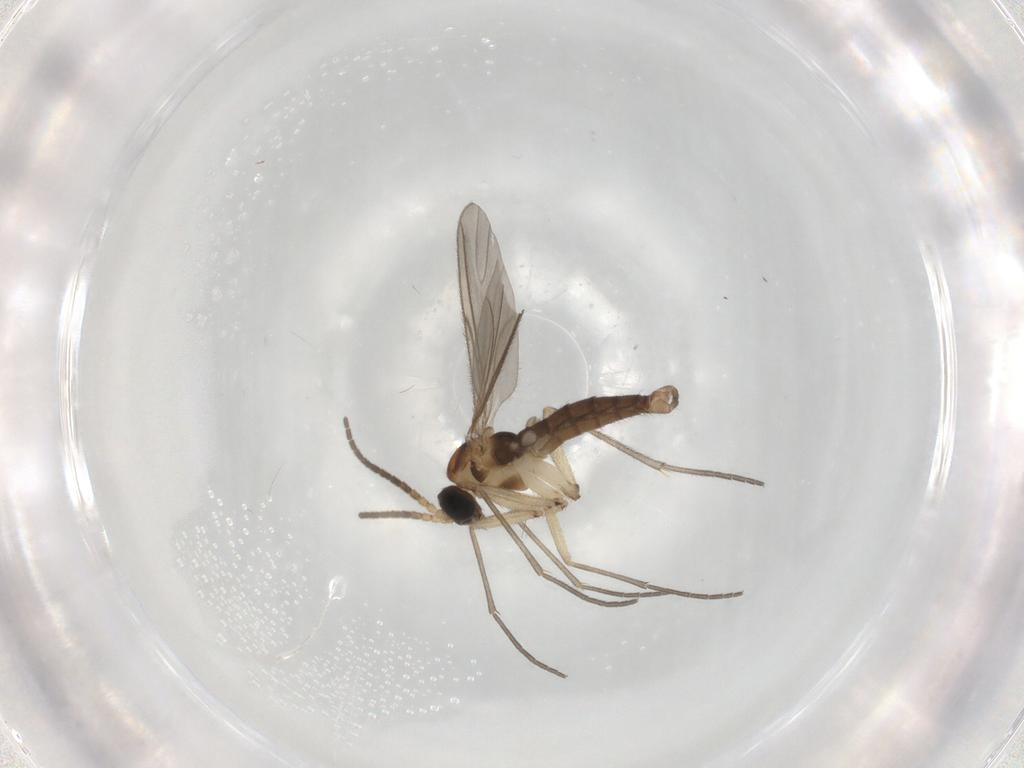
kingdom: Animalia
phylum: Arthropoda
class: Insecta
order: Diptera
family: Sciaridae
